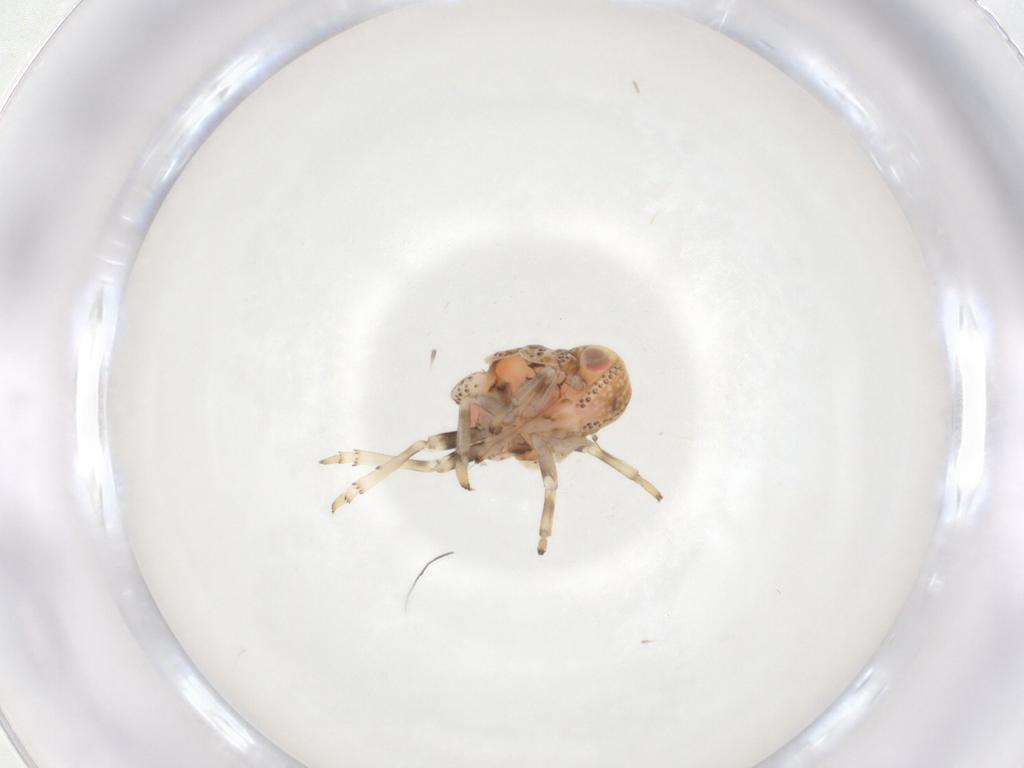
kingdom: Animalia
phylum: Arthropoda
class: Insecta
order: Hemiptera
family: Nogodinidae
